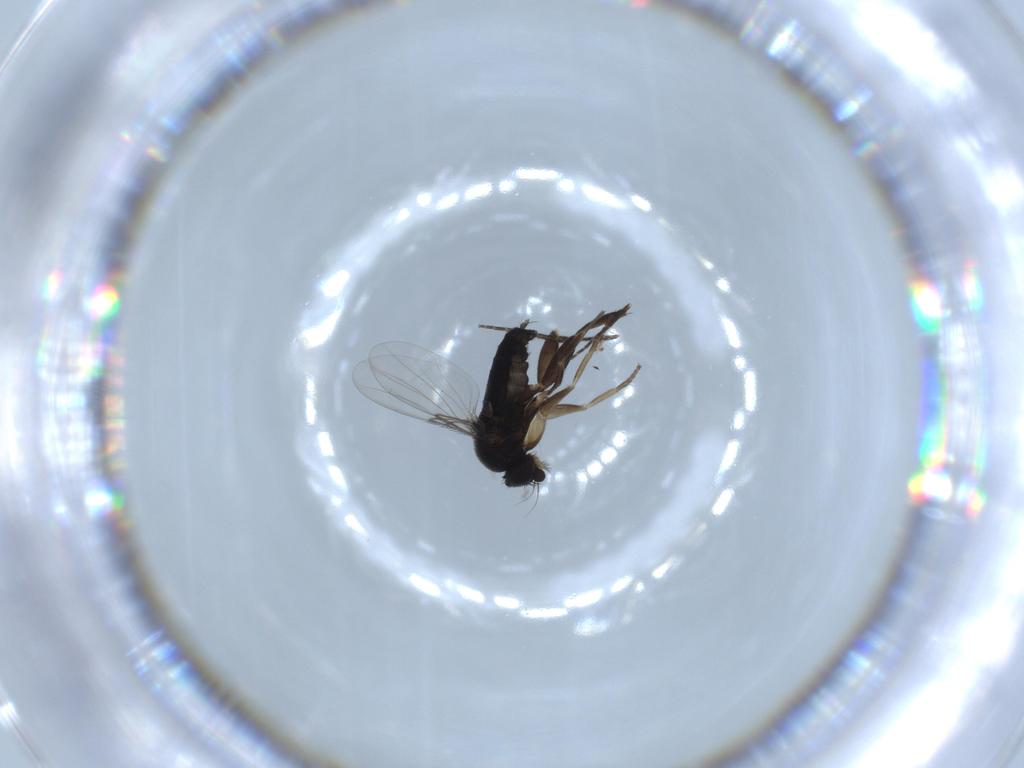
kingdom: Animalia
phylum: Arthropoda
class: Insecta
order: Diptera
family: Phoridae
